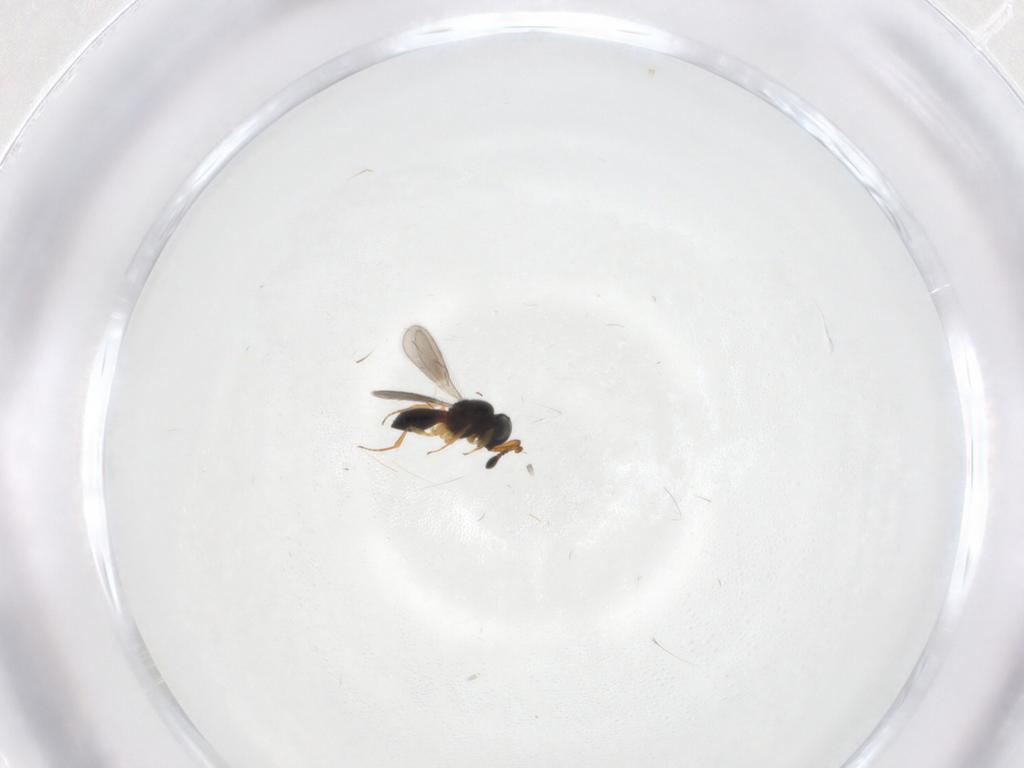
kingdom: Animalia
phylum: Arthropoda
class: Insecta
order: Hymenoptera
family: Scelionidae
